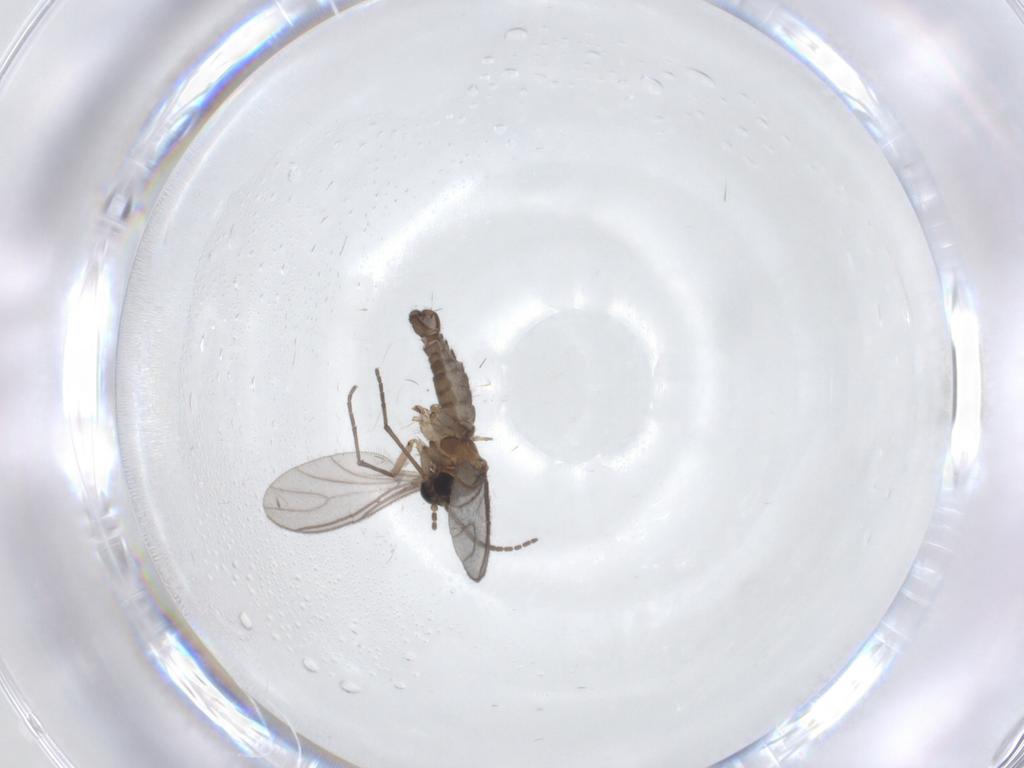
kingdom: Animalia
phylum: Arthropoda
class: Insecta
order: Diptera
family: Sciaridae
